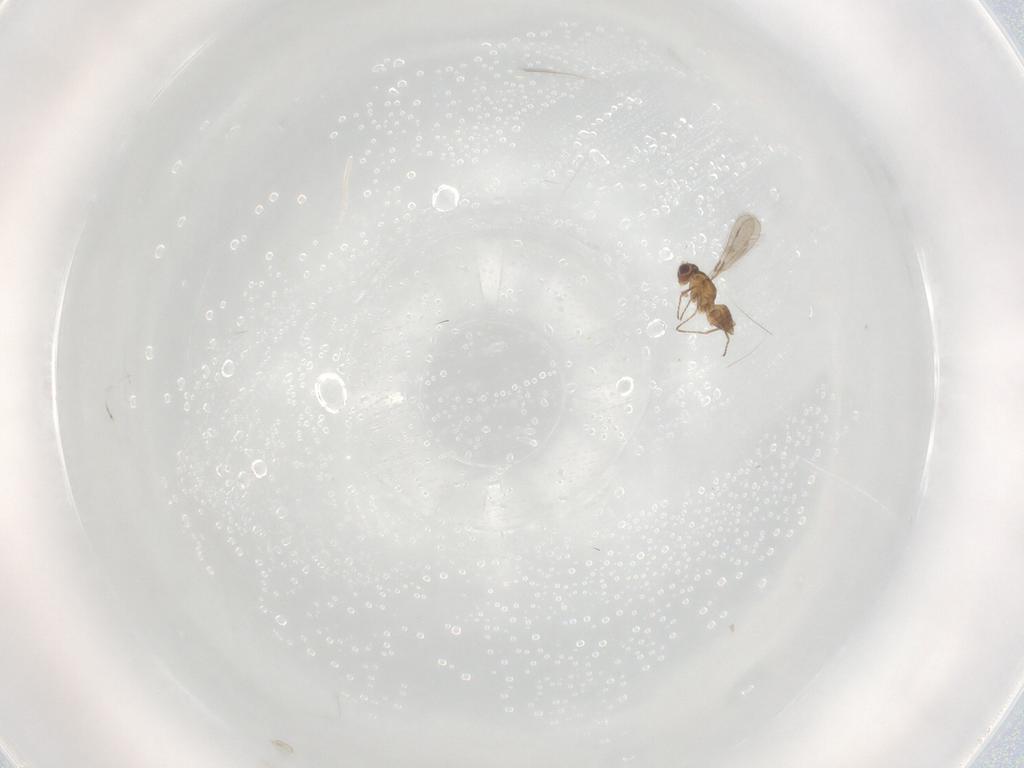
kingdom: Animalia
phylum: Arthropoda
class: Insecta
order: Hymenoptera
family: Mymaridae
